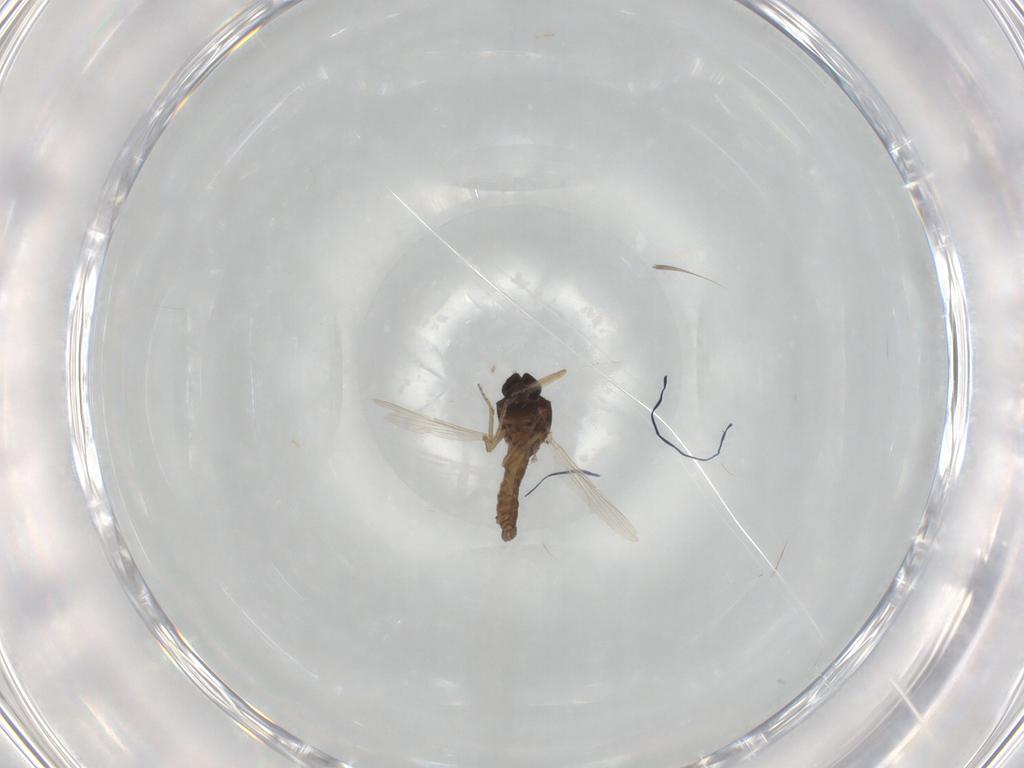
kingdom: Animalia
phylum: Arthropoda
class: Insecta
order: Diptera
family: Ceratopogonidae
